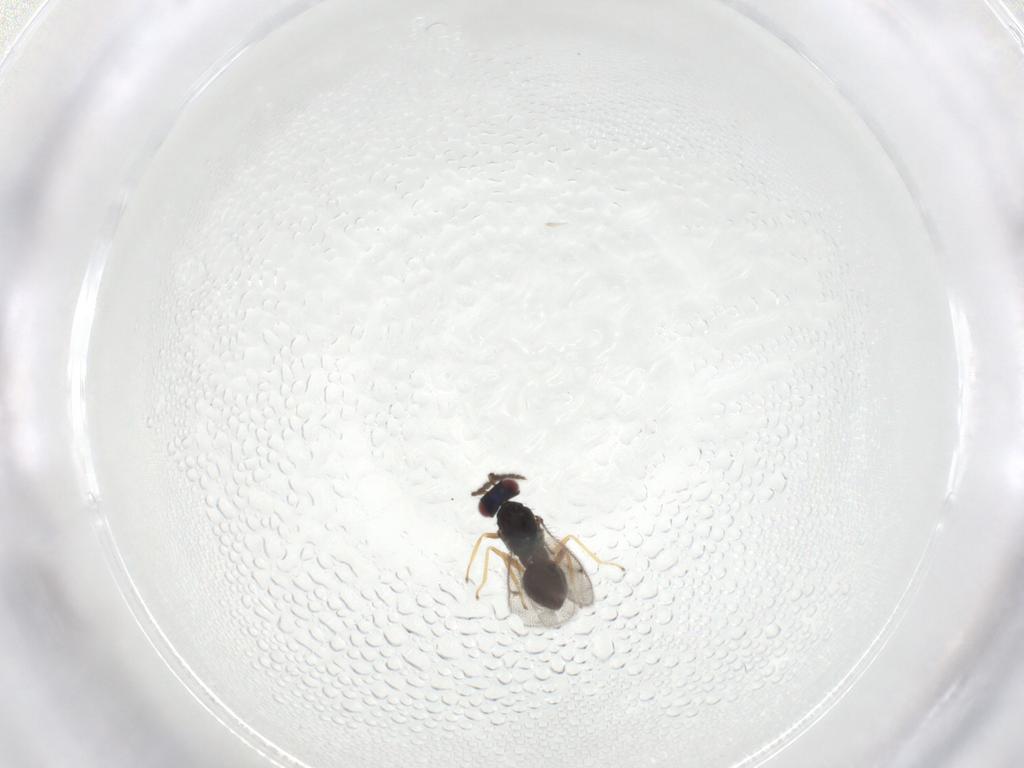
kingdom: Animalia
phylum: Arthropoda
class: Insecta
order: Hymenoptera
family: Eulophidae
